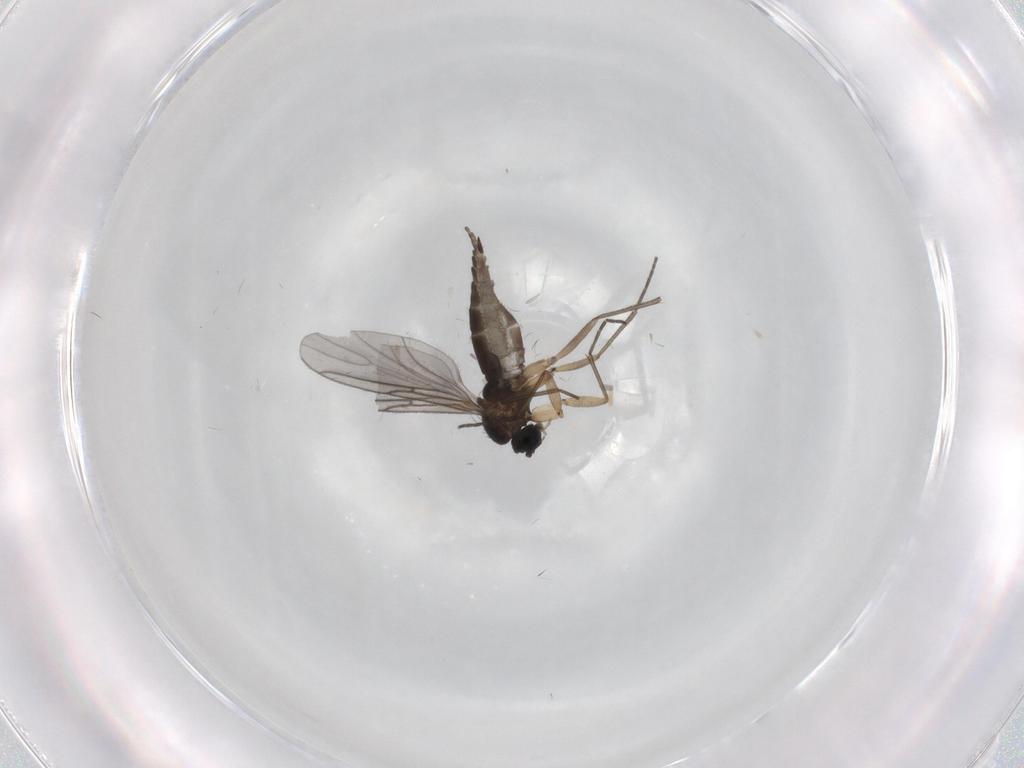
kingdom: Animalia
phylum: Arthropoda
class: Insecta
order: Diptera
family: Sciaridae
